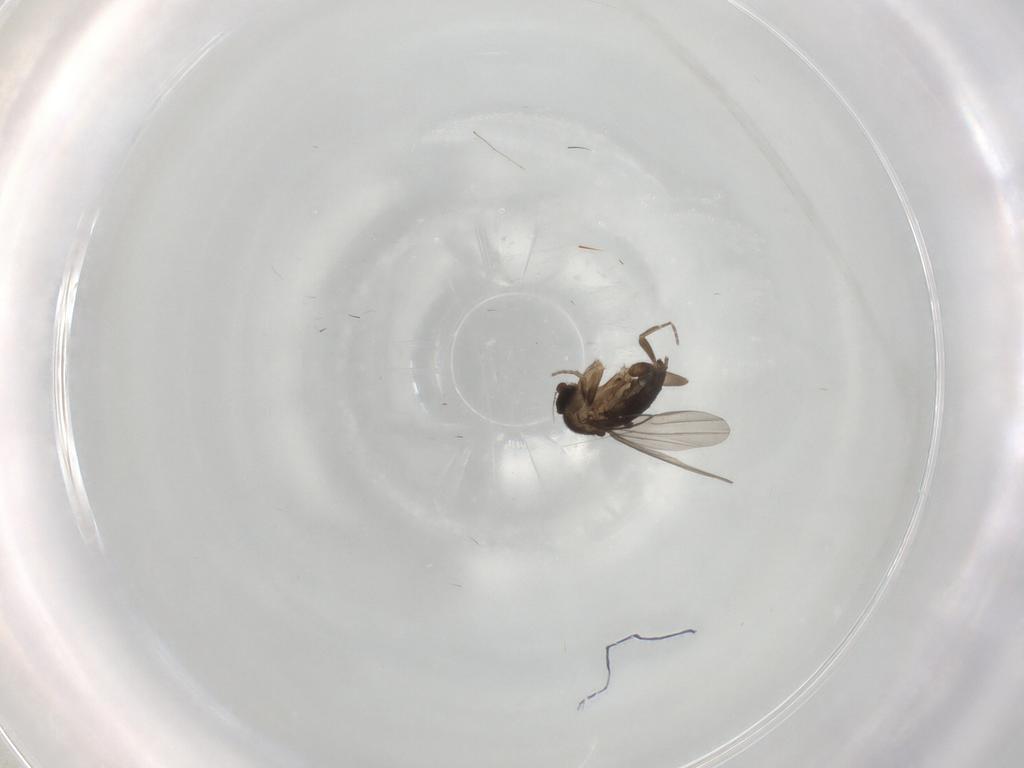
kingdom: Animalia
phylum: Arthropoda
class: Insecta
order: Diptera
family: Phoridae
